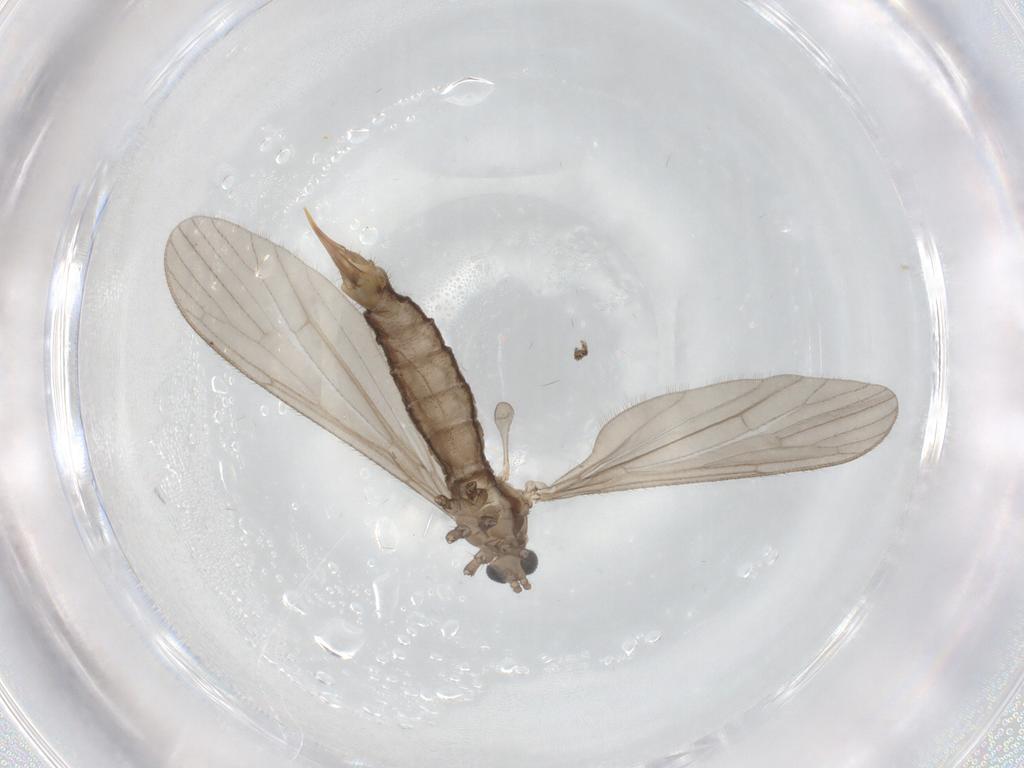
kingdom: Animalia
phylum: Arthropoda
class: Insecta
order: Diptera
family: Limoniidae
